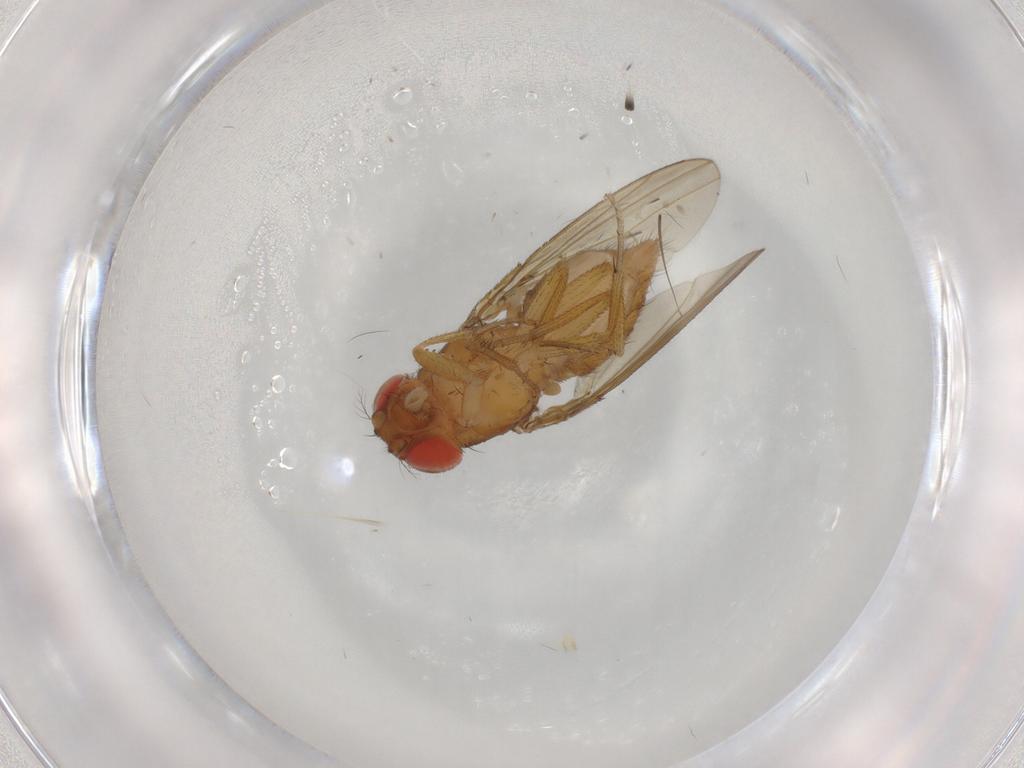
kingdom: Animalia
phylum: Arthropoda
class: Insecta
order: Diptera
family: Drosophilidae
